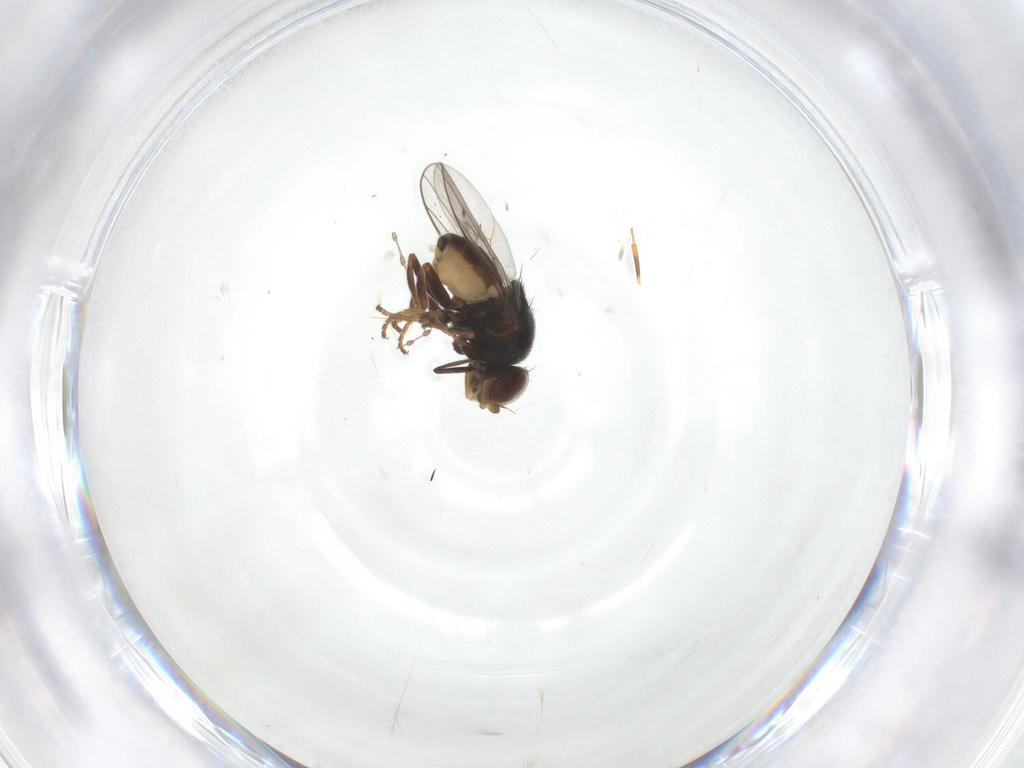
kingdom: Animalia
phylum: Arthropoda
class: Insecta
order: Diptera
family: Chloropidae
